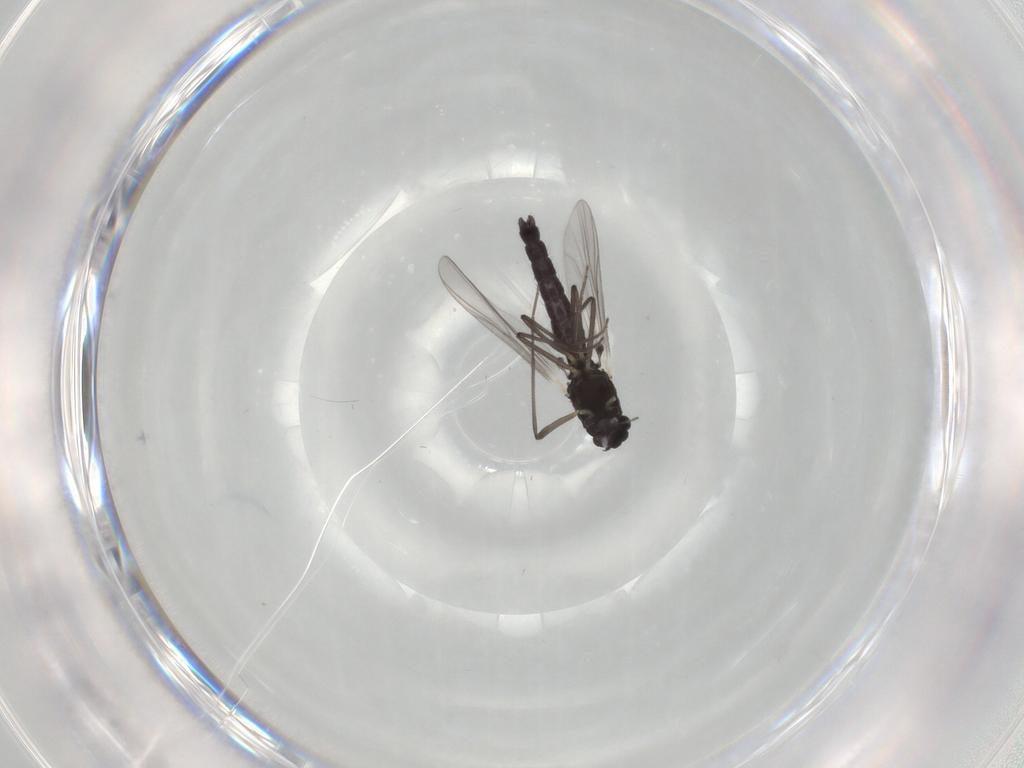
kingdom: Animalia
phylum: Arthropoda
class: Insecta
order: Diptera
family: Chironomidae
